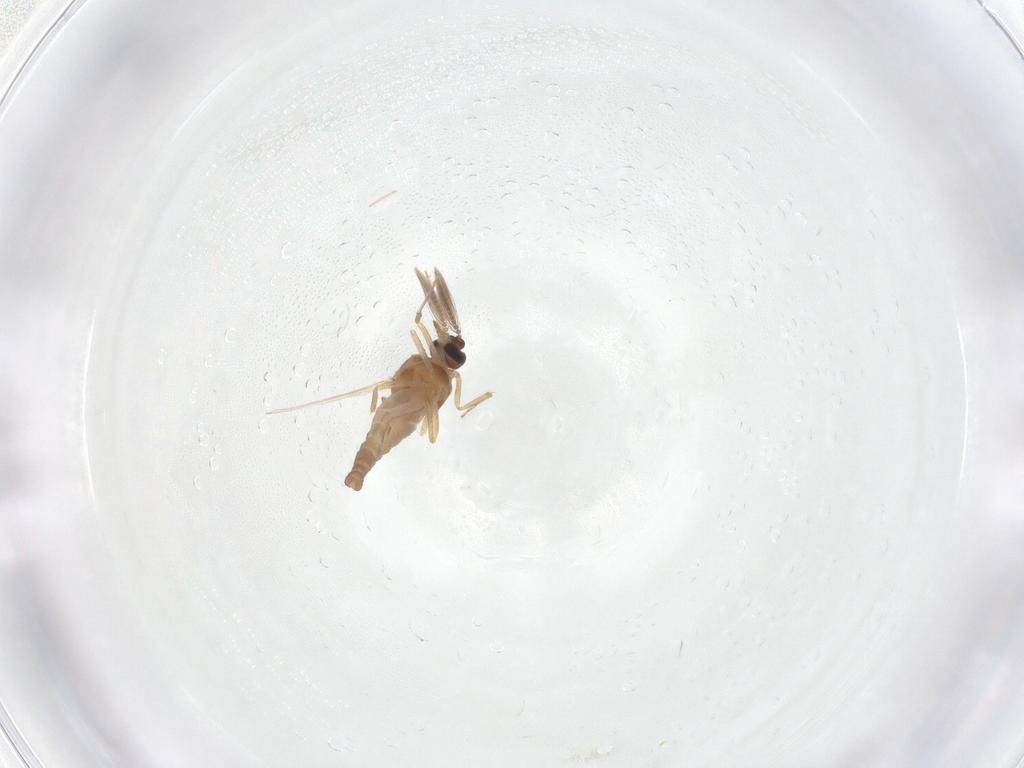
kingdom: Animalia
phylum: Arthropoda
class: Insecta
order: Diptera
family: Ceratopogonidae
